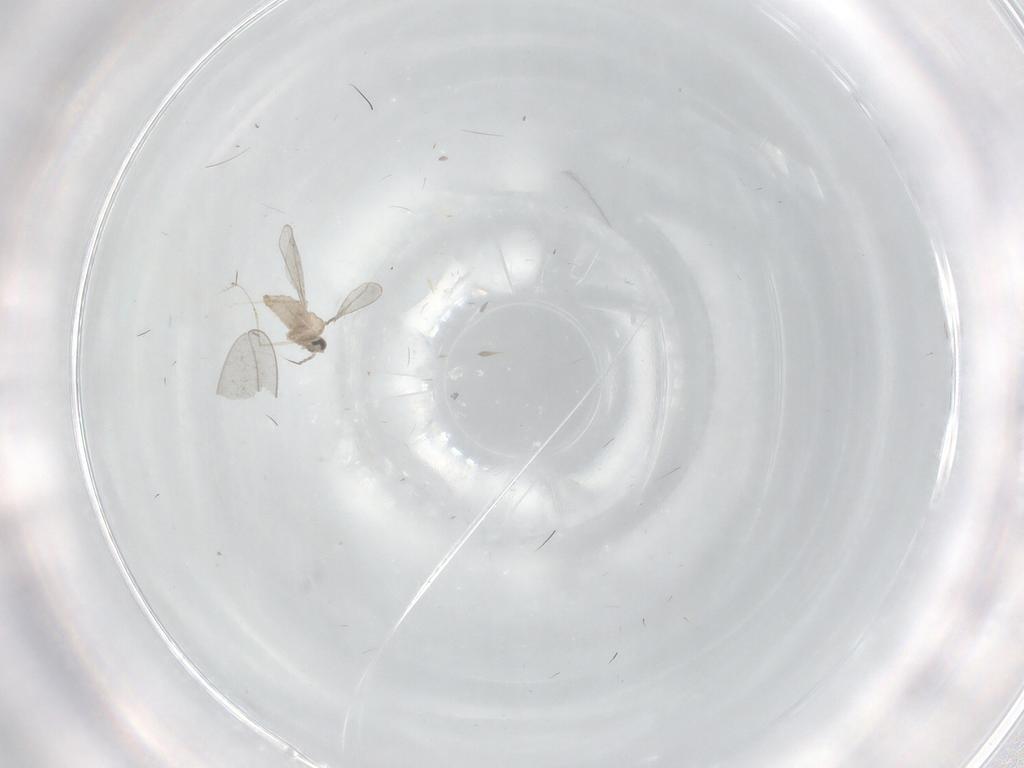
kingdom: Animalia
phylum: Arthropoda
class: Insecta
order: Diptera
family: Cecidomyiidae
